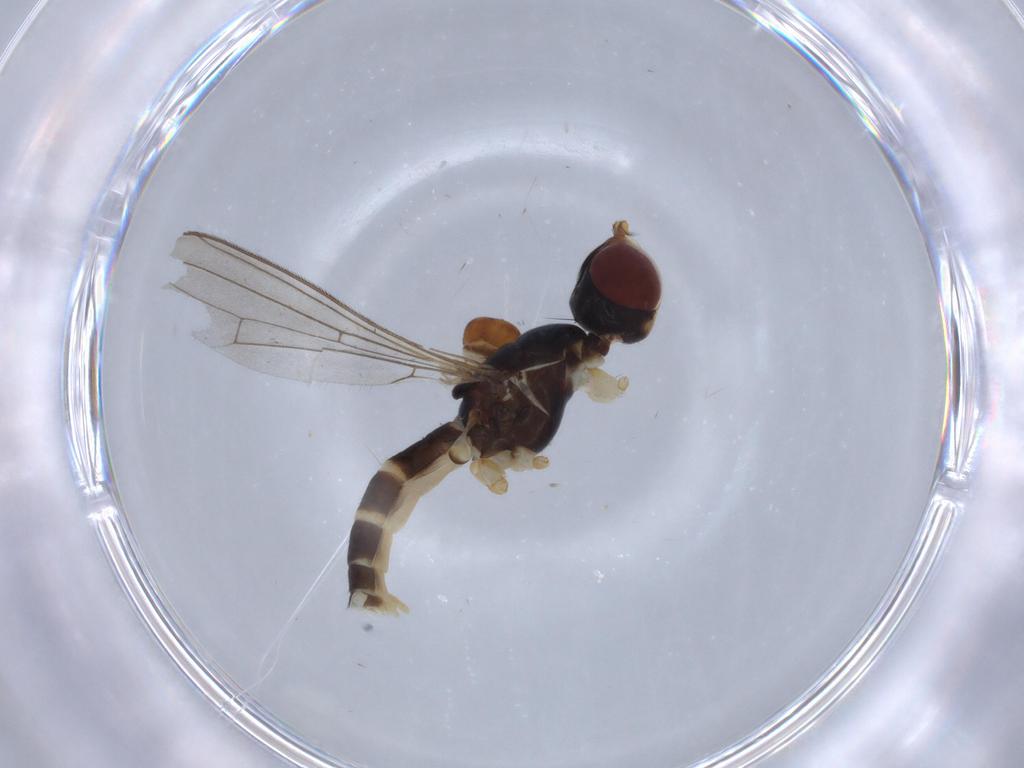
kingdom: Animalia
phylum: Arthropoda
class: Insecta
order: Diptera
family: Micropezidae
